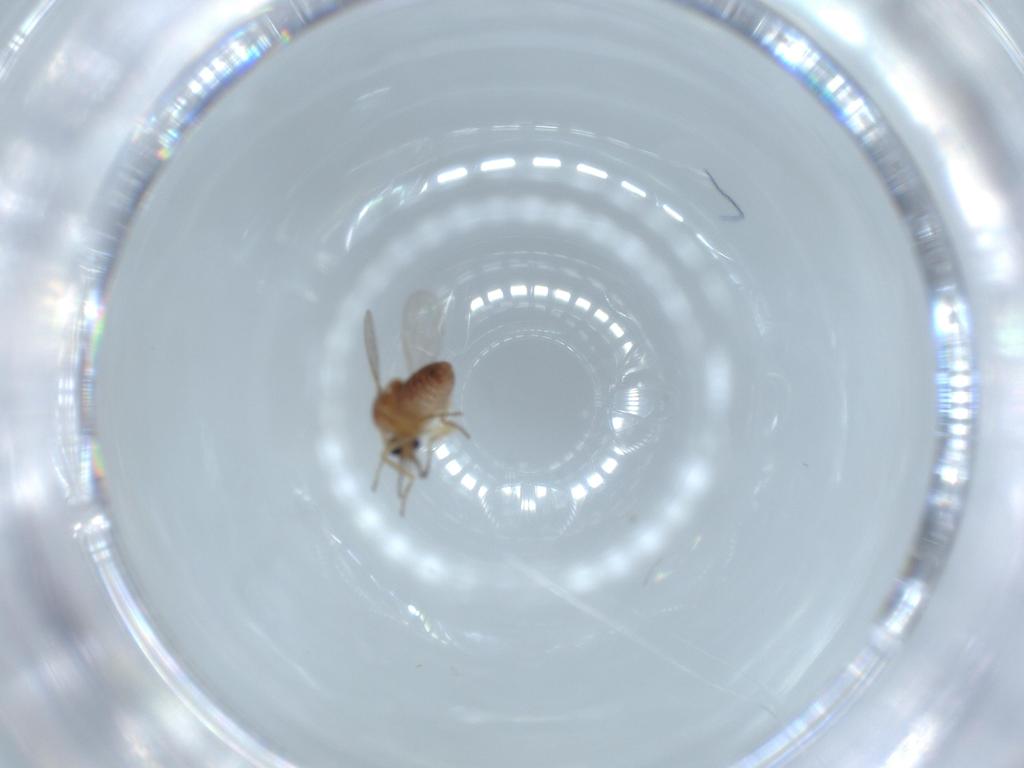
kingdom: Animalia
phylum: Arthropoda
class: Insecta
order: Diptera
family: Ceratopogonidae
